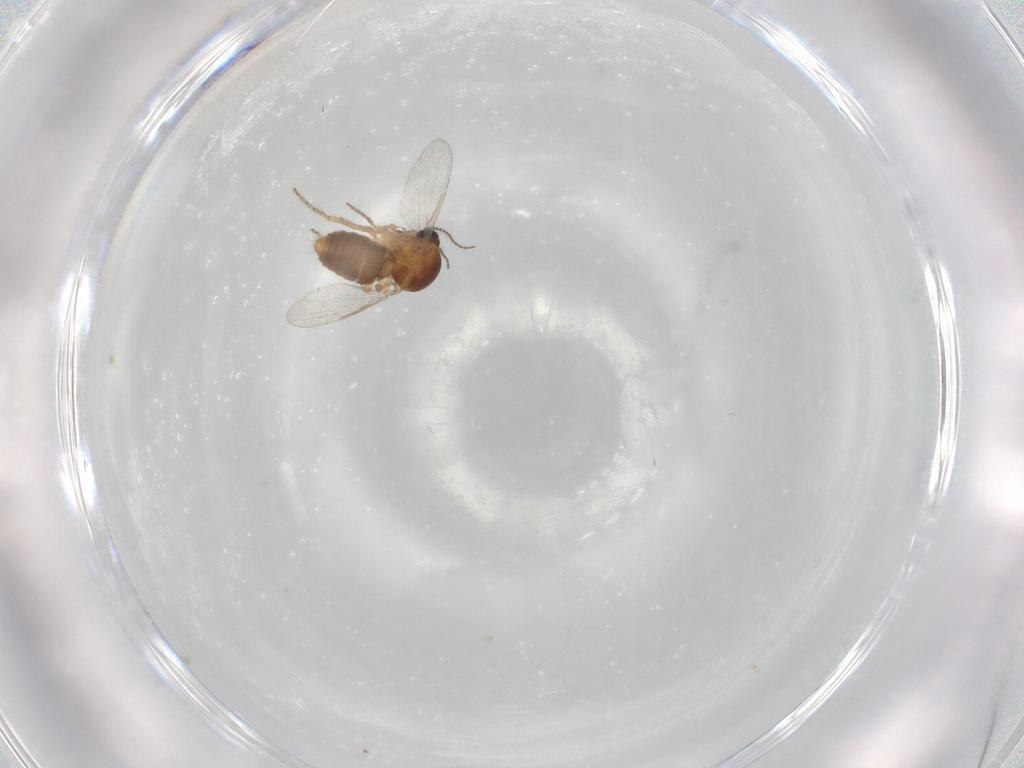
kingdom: Animalia
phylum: Arthropoda
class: Insecta
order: Diptera
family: Ceratopogonidae
